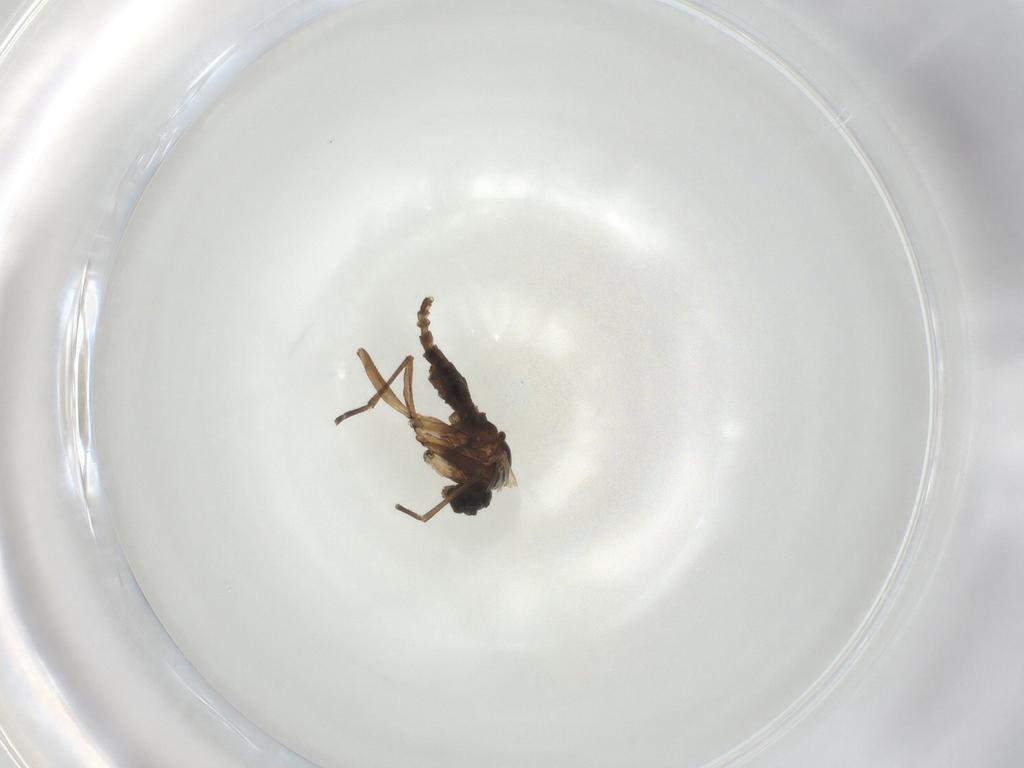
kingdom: Animalia
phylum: Arthropoda
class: Insecta
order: Diptera
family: Sciaridae
